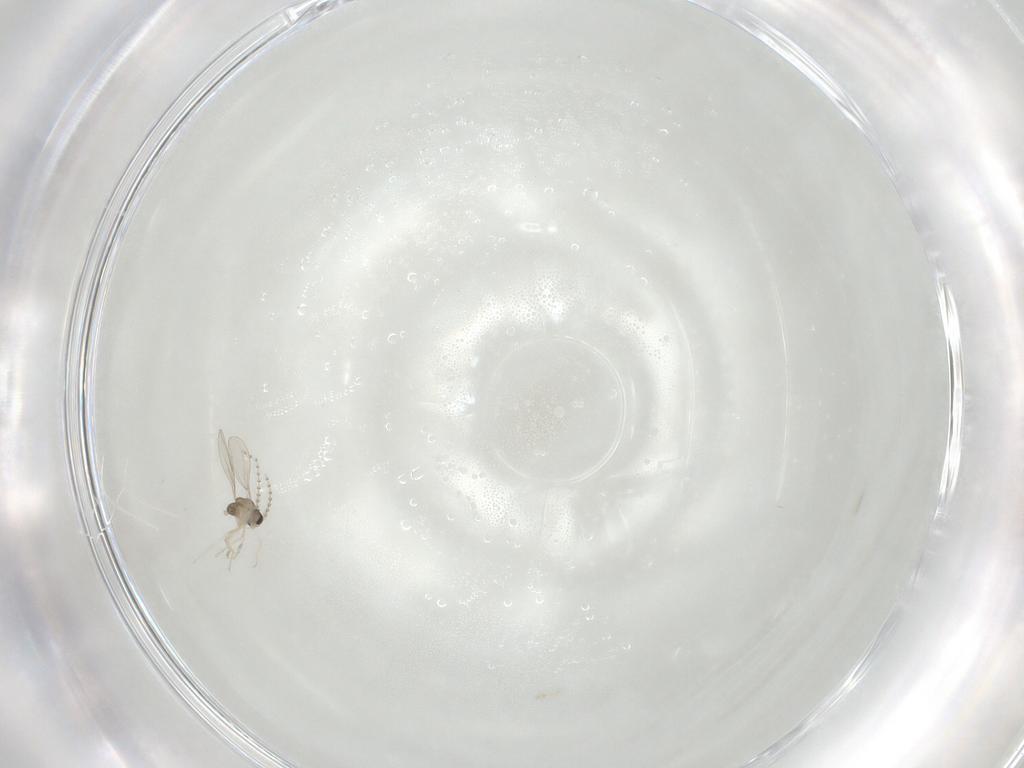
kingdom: Animalia
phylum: Arthropoda
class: Insecta
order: Diptera
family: Cecidomyiidae
